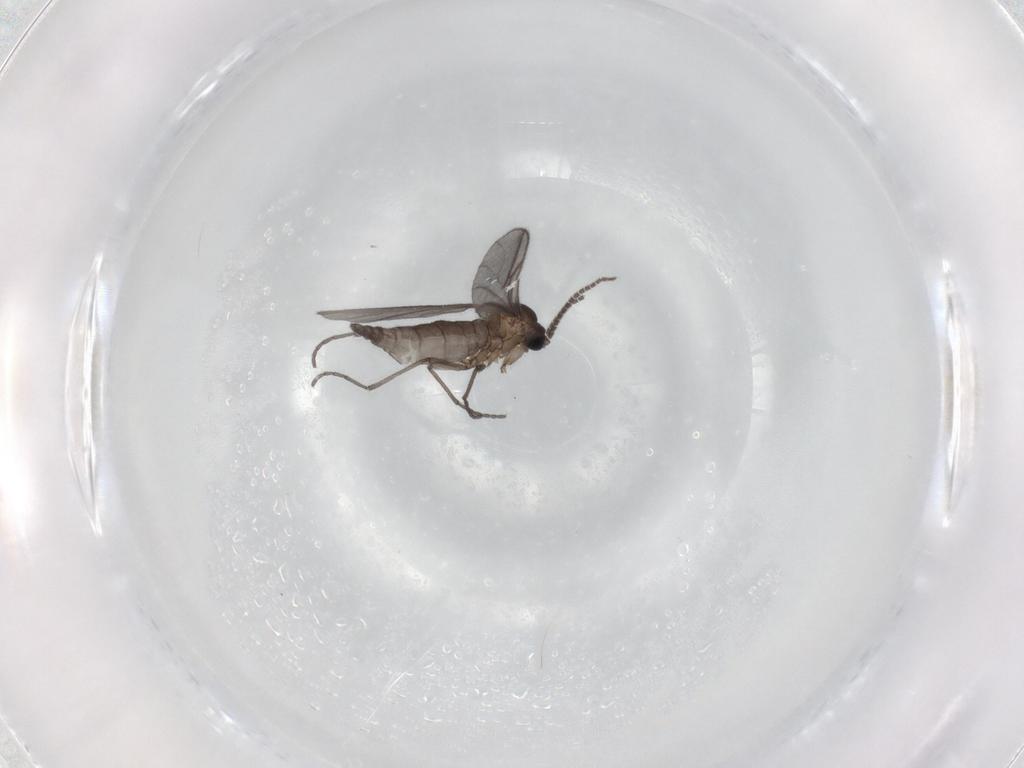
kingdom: Animalia
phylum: Arthropoda
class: Insecta
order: Diptera
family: Sciaridae
